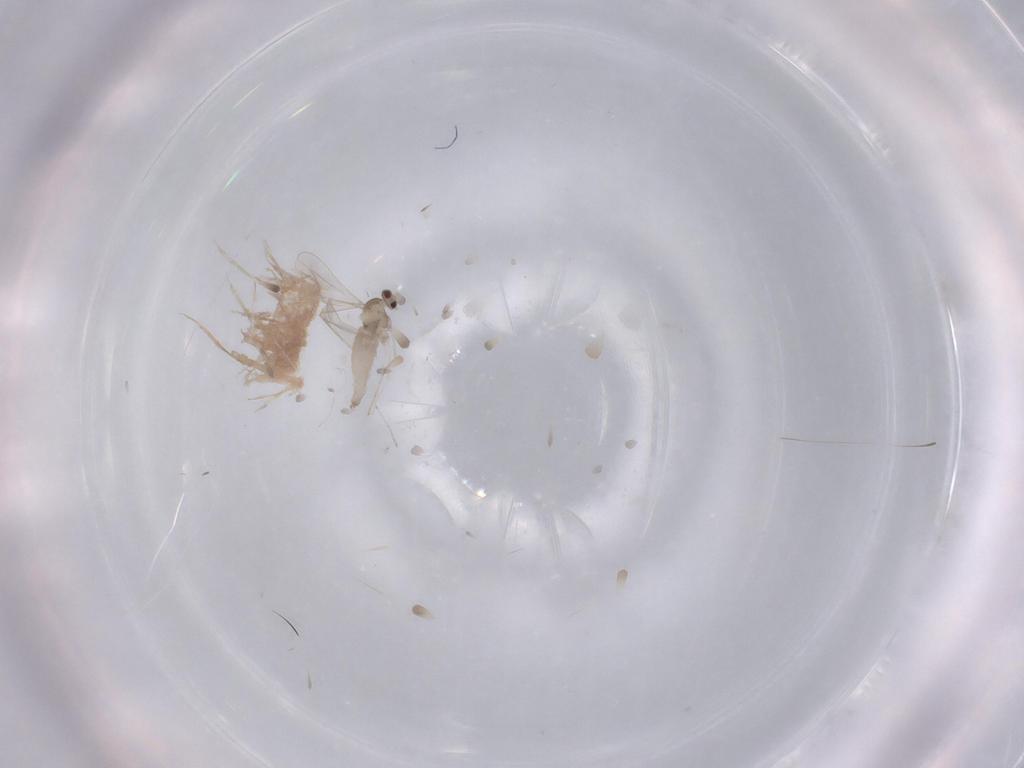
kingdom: Animalia
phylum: Arthropoda
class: Insecta
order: Diptera
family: Cecidomyiidae
